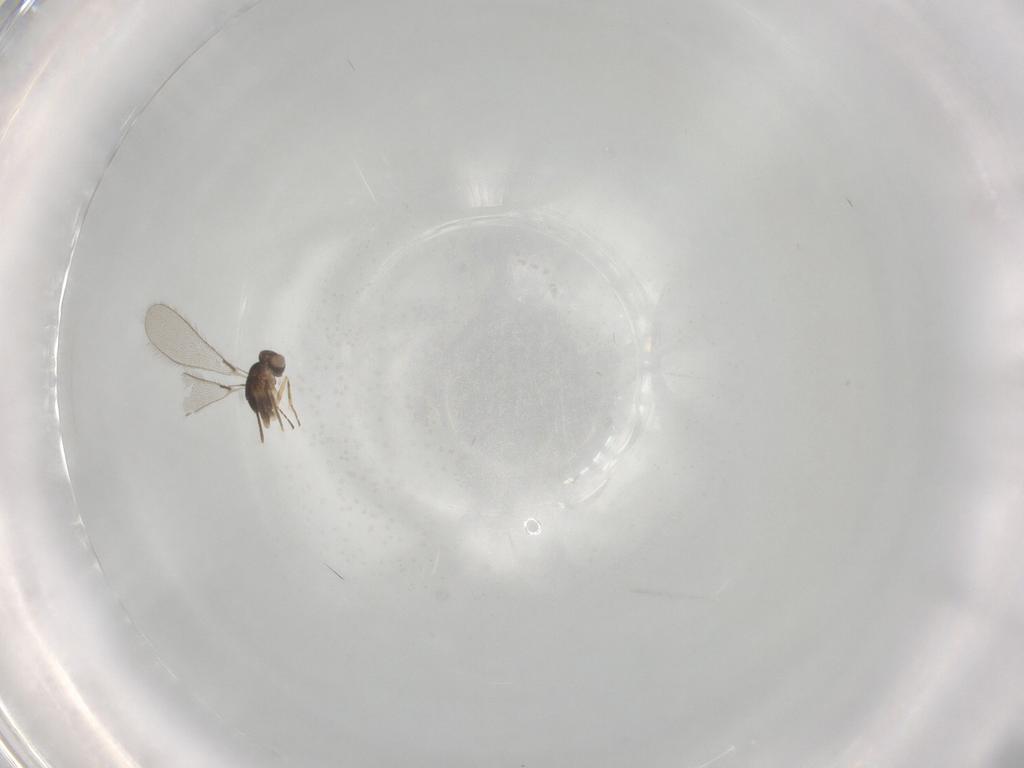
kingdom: Animalia
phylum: Arthropoda
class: Insecta
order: Hymenoptera
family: Mymaridae
